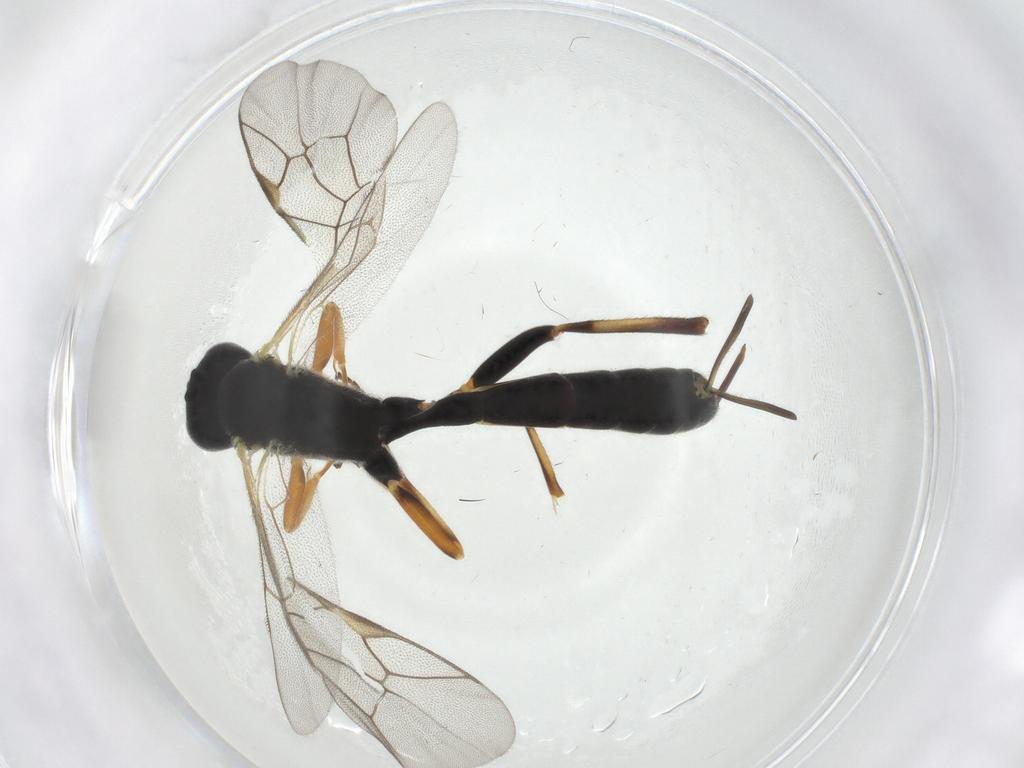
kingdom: Animalia
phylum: Arthropoda
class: Insecta
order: Hymenoptera
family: Ichneumonidae
